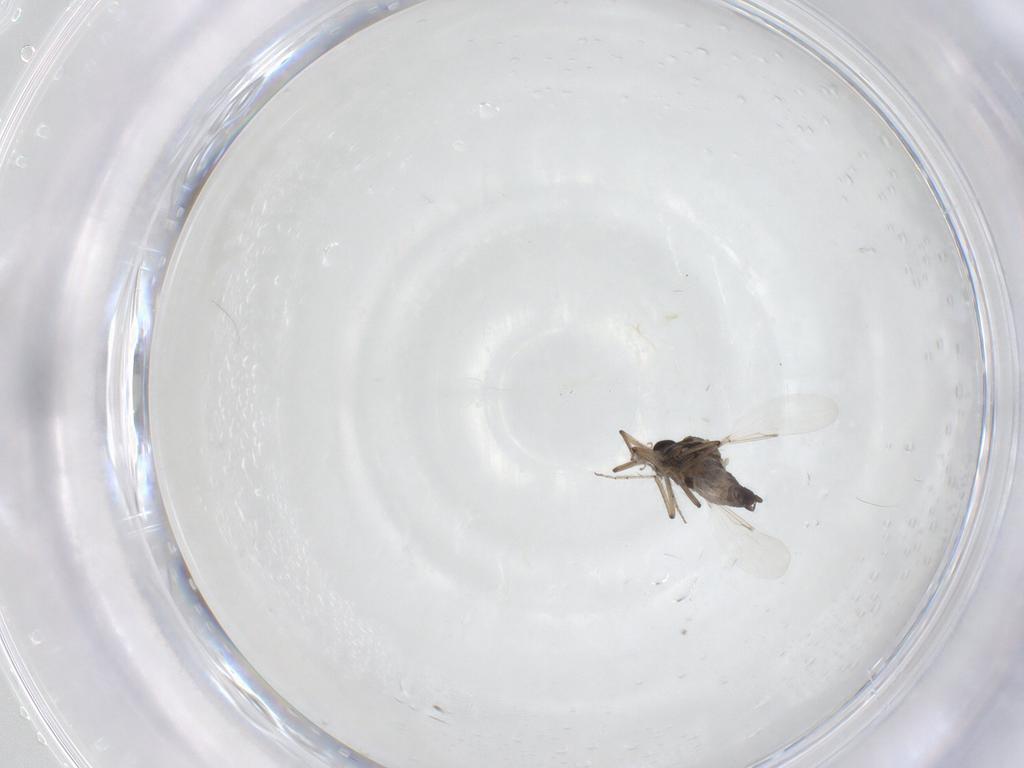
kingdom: Animalia
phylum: Arthropoda
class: Insecta
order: Diptera
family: Ceratopogonidae
